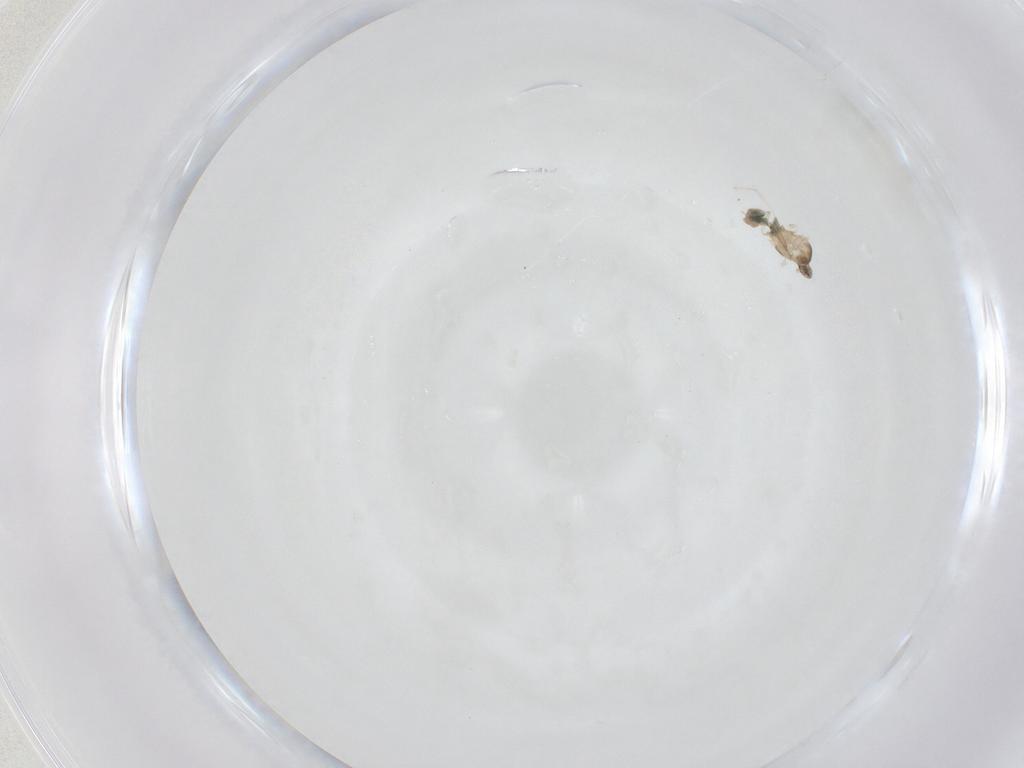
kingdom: Animalia
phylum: Arthropoda
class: Insecta
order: Diptera
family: Cecidomyiidae
